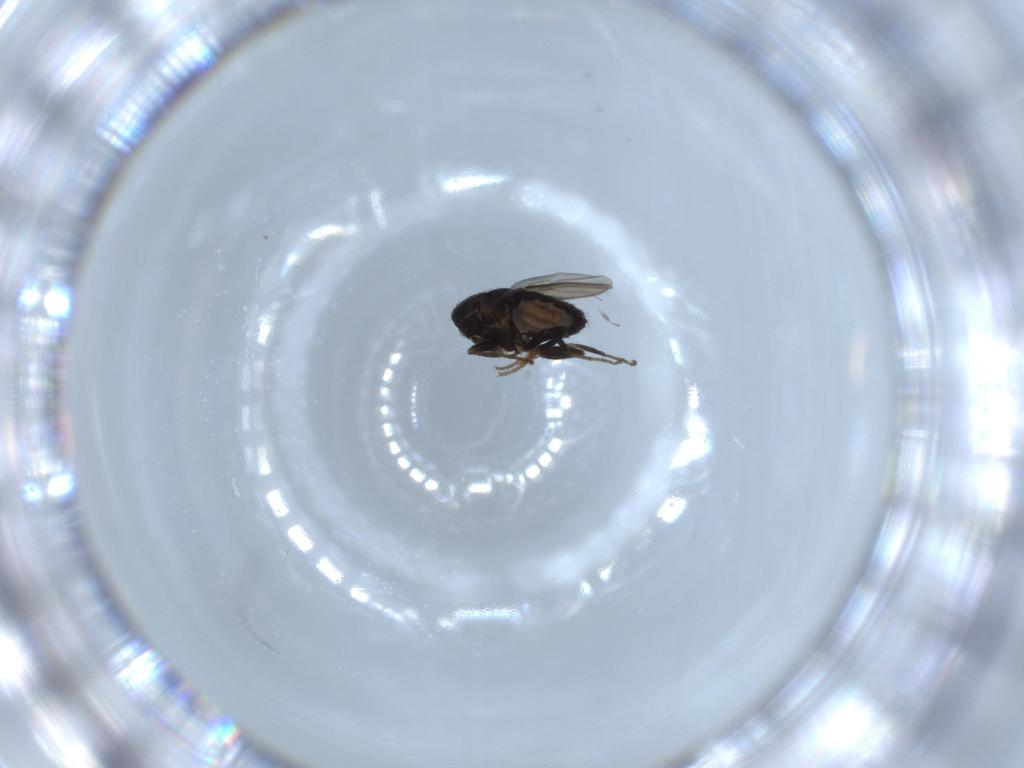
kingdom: Animalia
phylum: Arthropoda
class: Insecta
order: Diptera
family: Sphaeroceridae
